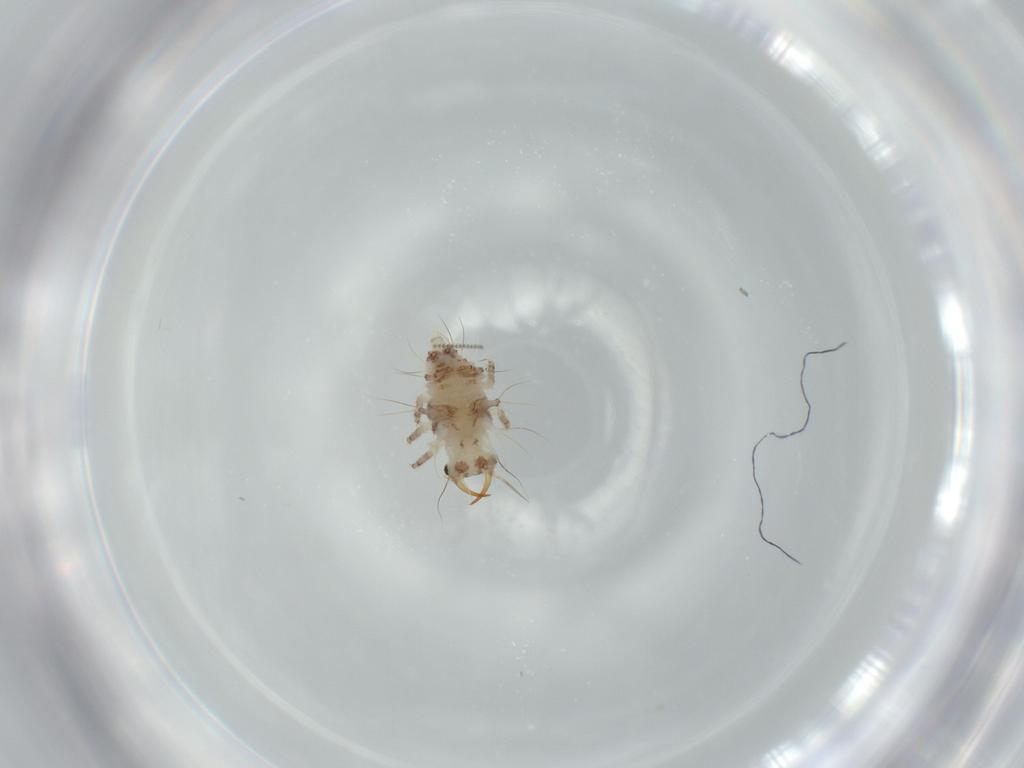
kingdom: Animalia
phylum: Arthropoda
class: Insecta
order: Neuroptera
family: Chrysopidae
